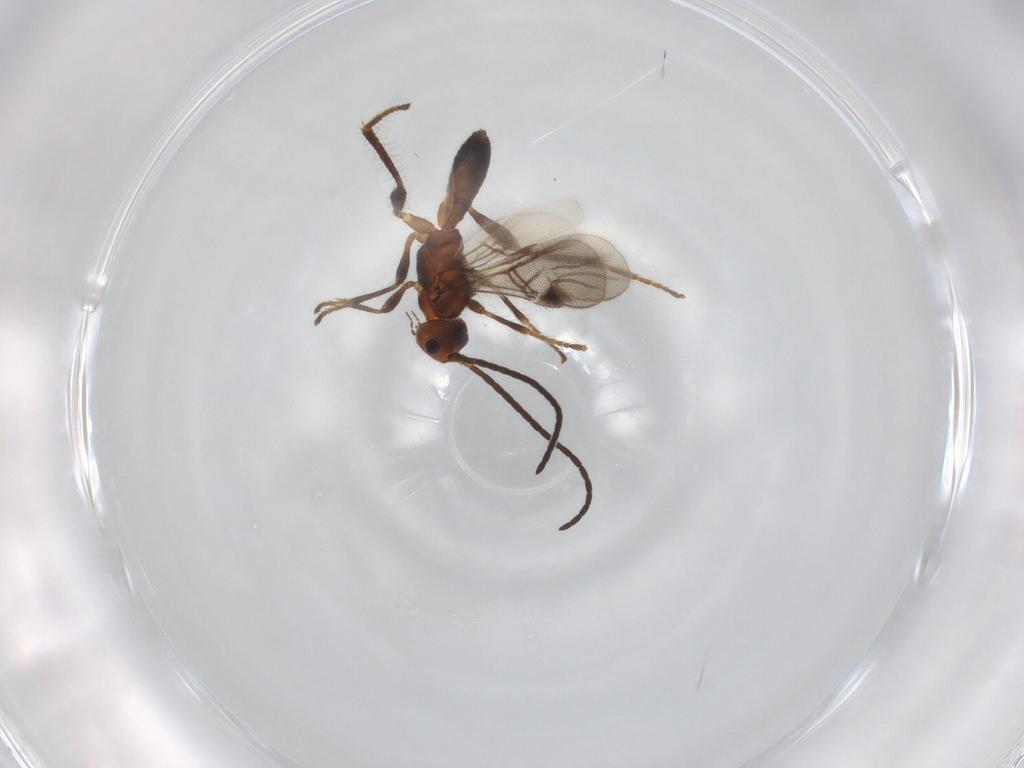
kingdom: Animalia
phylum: Arthropoda
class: Insecta
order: Hymenoptera
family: Braconidae
